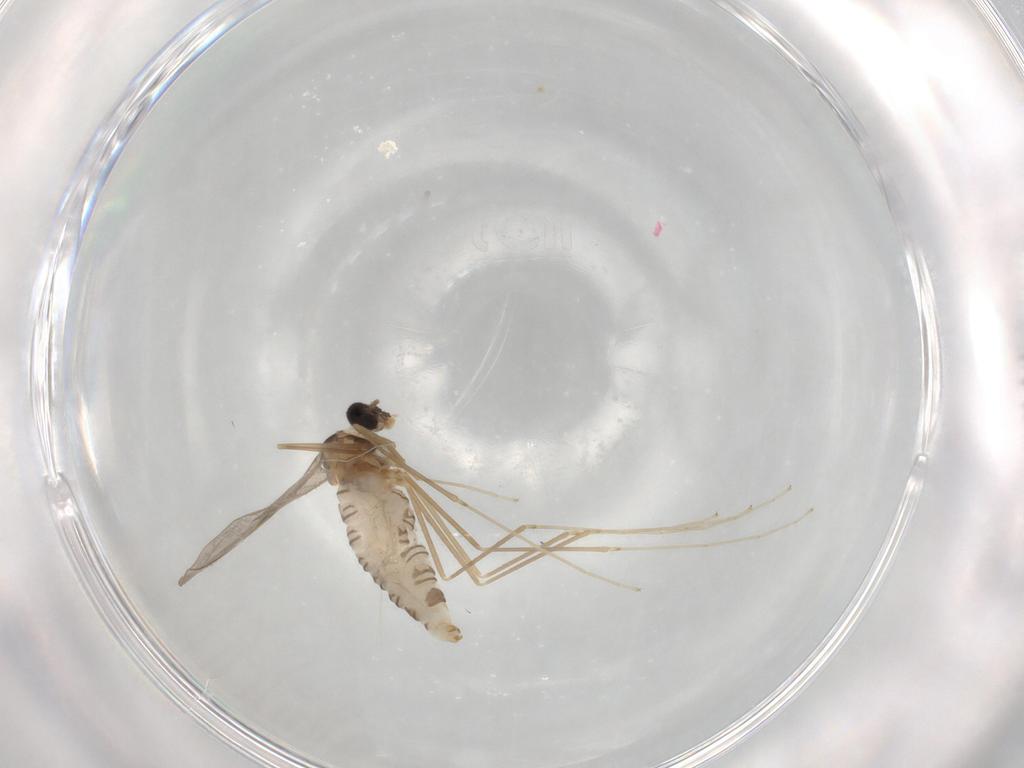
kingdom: Animalia
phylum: Arthropoda
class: Insecta
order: Diptera
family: Cecidomyiidae
